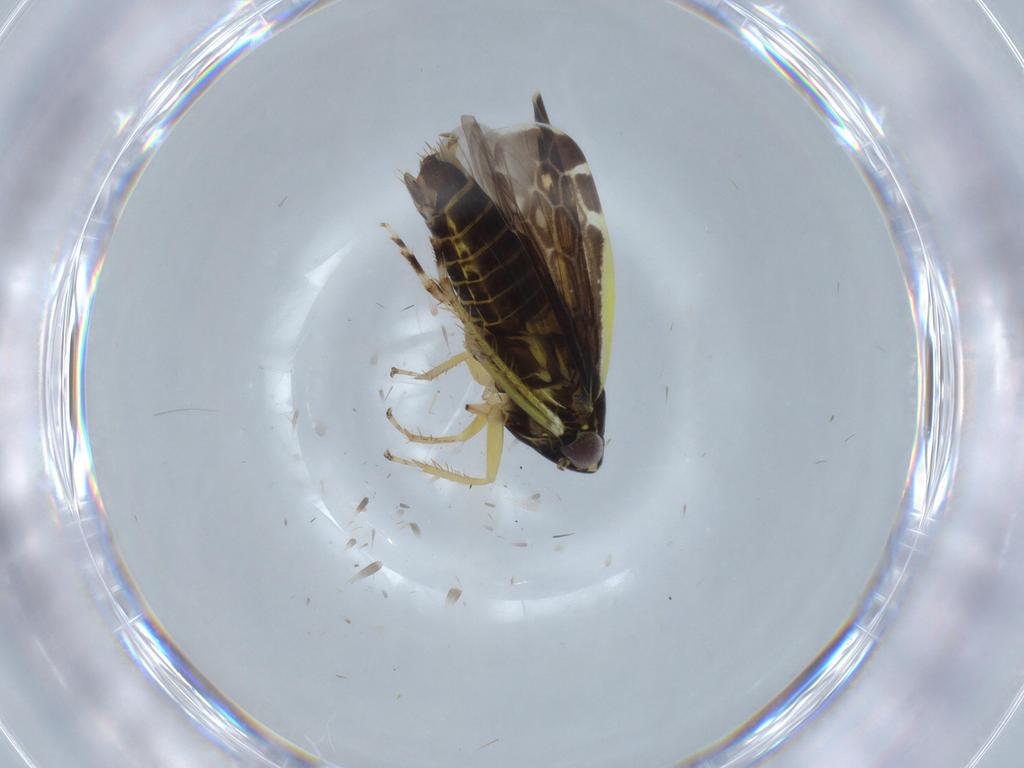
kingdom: Animalia
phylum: Arthropoda
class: Insecta
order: Hemiptera
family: Cicadellidae
